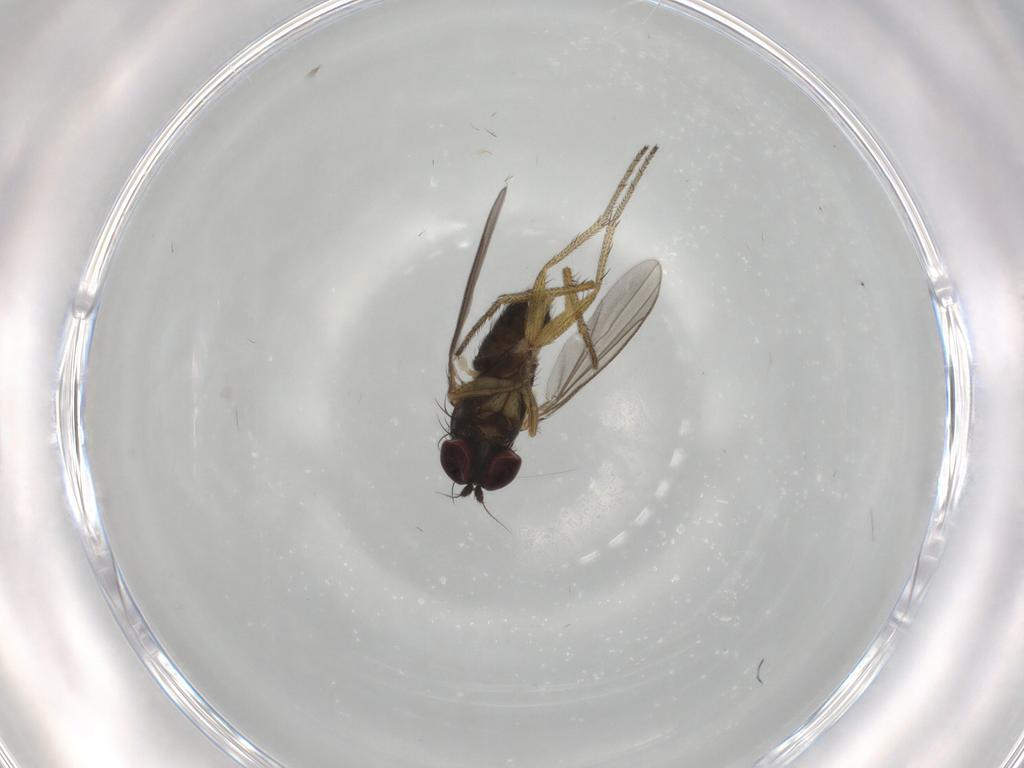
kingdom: Animalia
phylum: Arthropoda
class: Insecta
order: Diptera
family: Dolichopodidae
